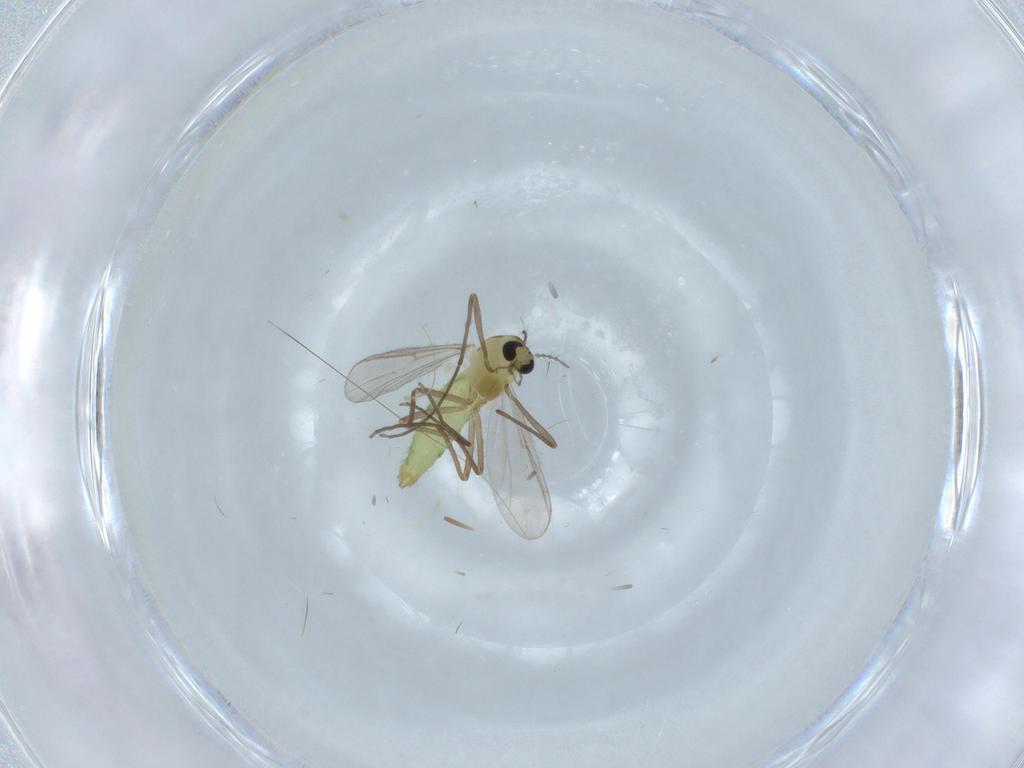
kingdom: Animalia
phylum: Arthropoda
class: Insecta
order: Diptera
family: Chironomidae
